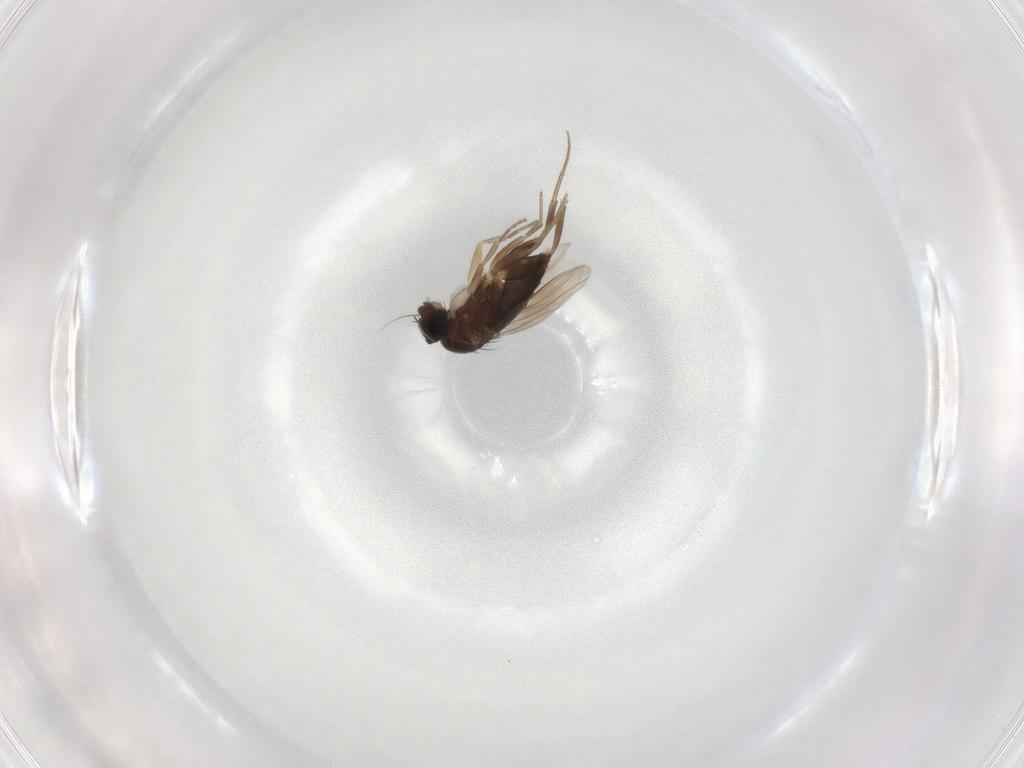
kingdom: Animalia
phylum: Arthropoda
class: Insecta
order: Diptera
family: Phoridae
